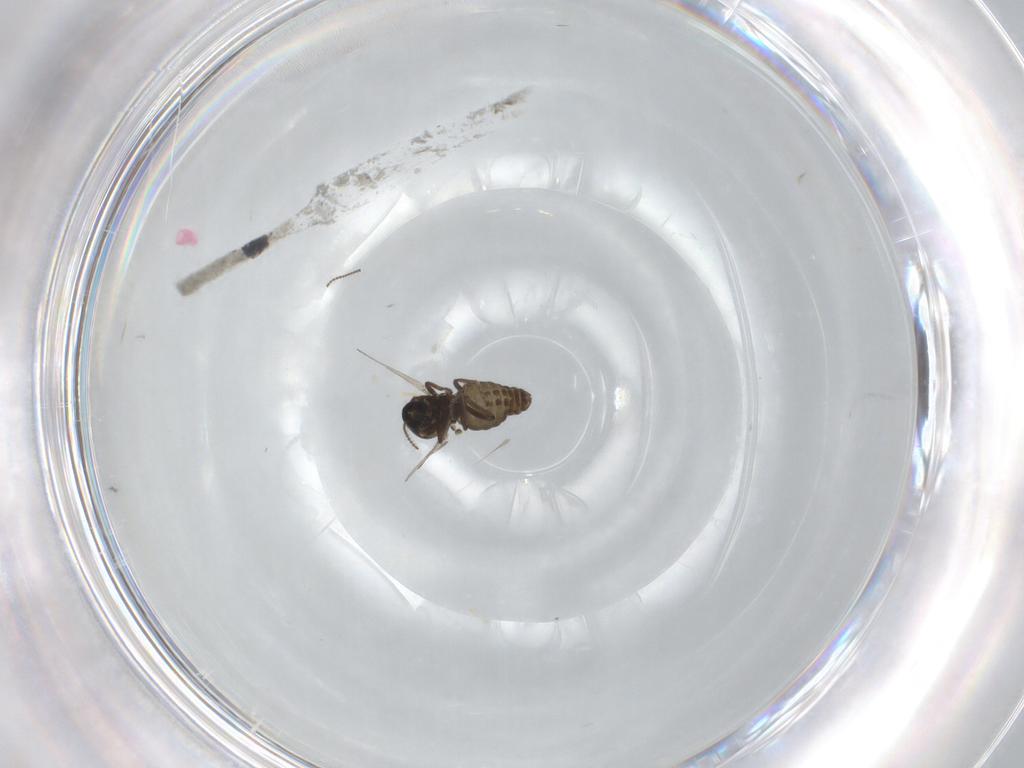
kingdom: Animalia
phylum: Arthropoda
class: Insecta
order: Diptera
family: Ceratopogonidae
